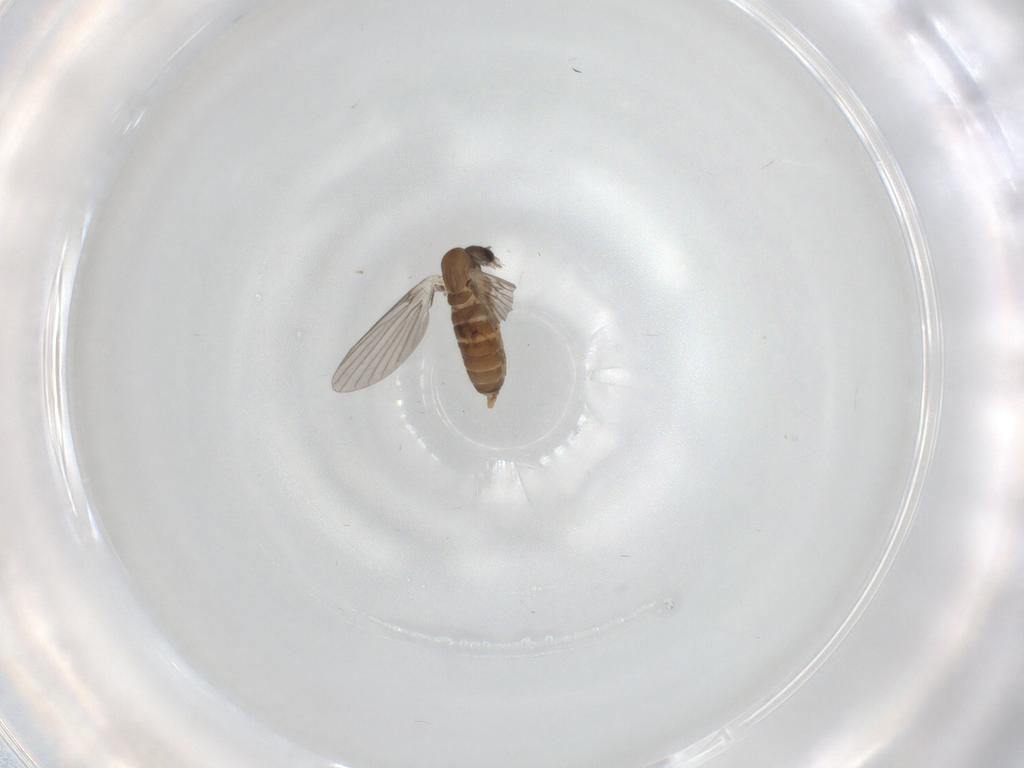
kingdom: Animalia
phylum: Arthropoda
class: Insecta
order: Diptera
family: Ceratopogonidae
